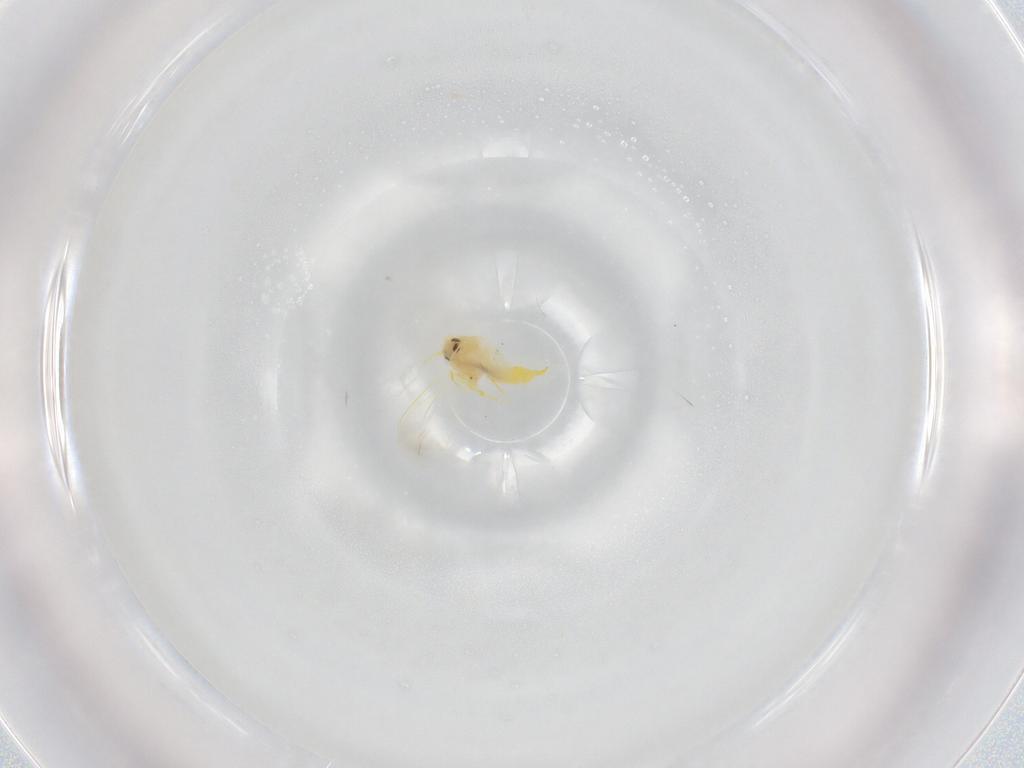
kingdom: Animalia
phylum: Arthropoda
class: Insecta
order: Hemiptera
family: Aleyrodidae
